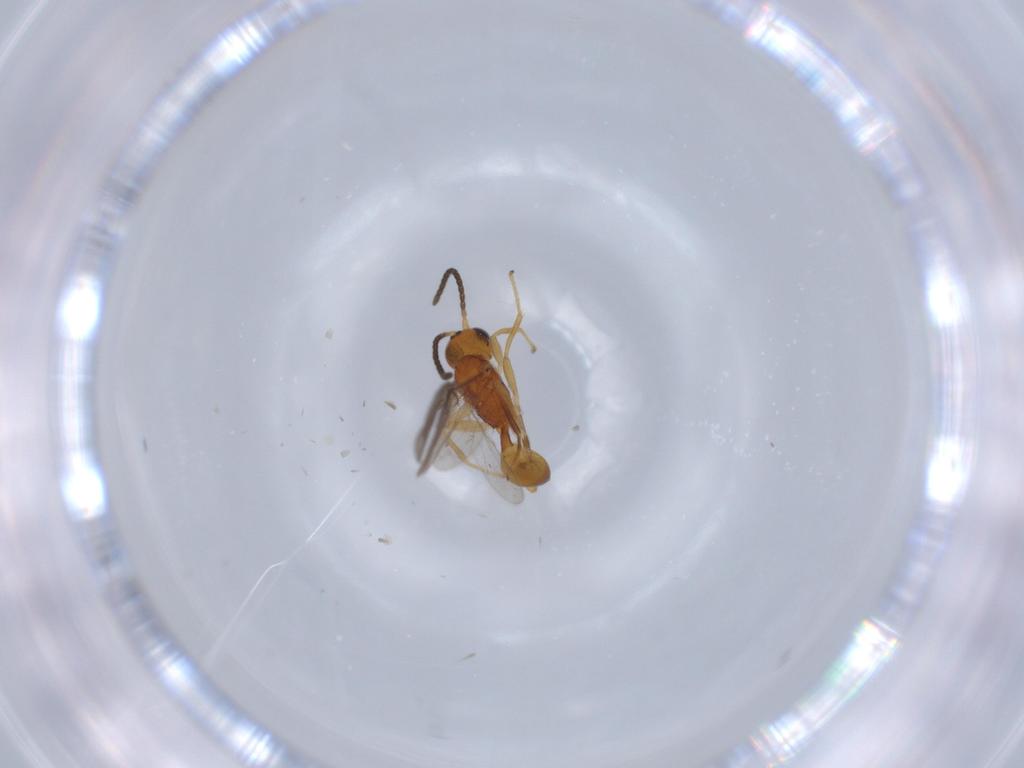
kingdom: Animalia
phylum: Arthropoda
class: Insecta
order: Hymenoptera
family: Braconidae
